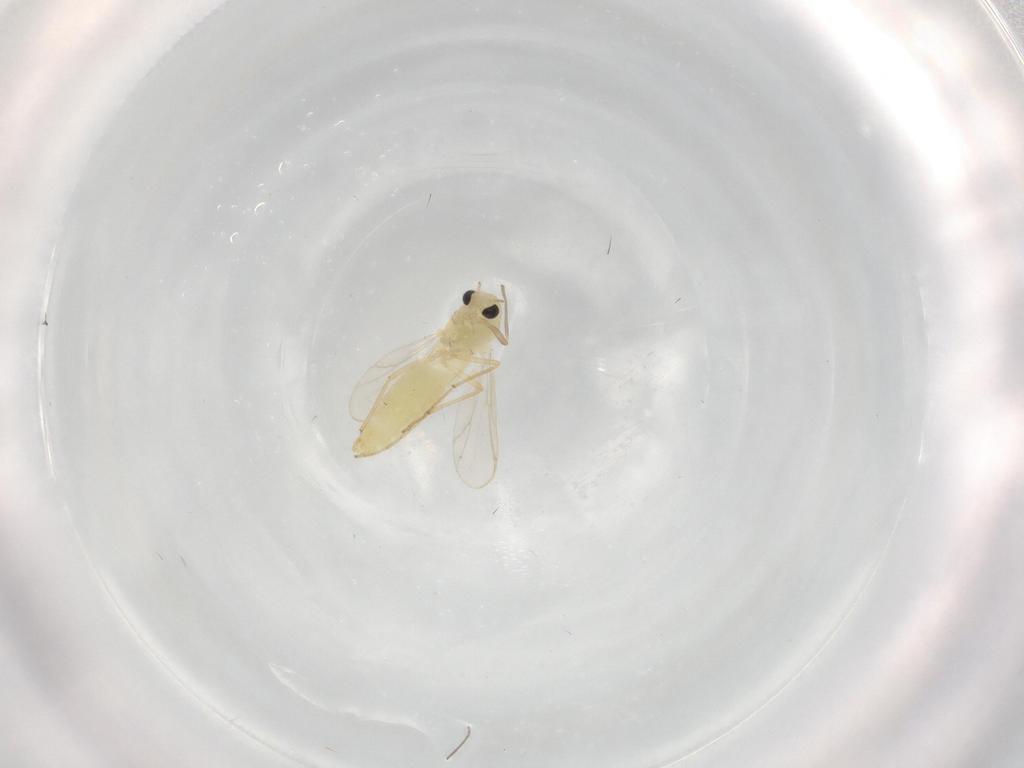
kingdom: Animalia
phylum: Arthropoda
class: Insecta
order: Diptera
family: Chironomidae
